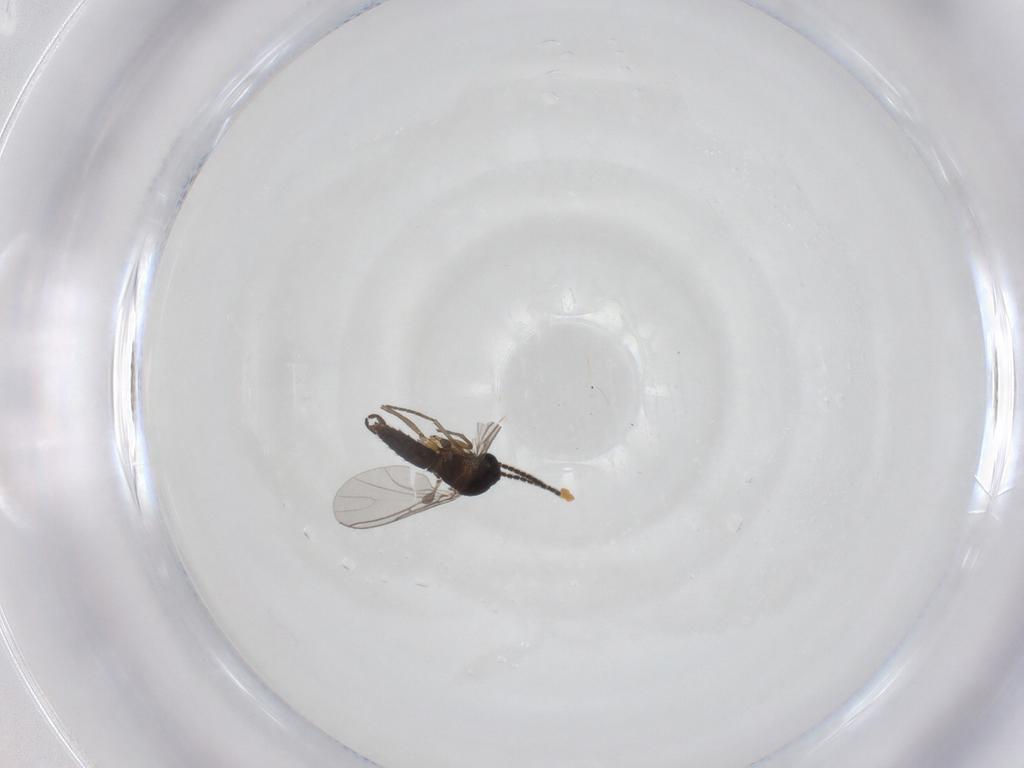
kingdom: Animalia
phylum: Arthropoda
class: Insecta
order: Diptera
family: Sciaridae
